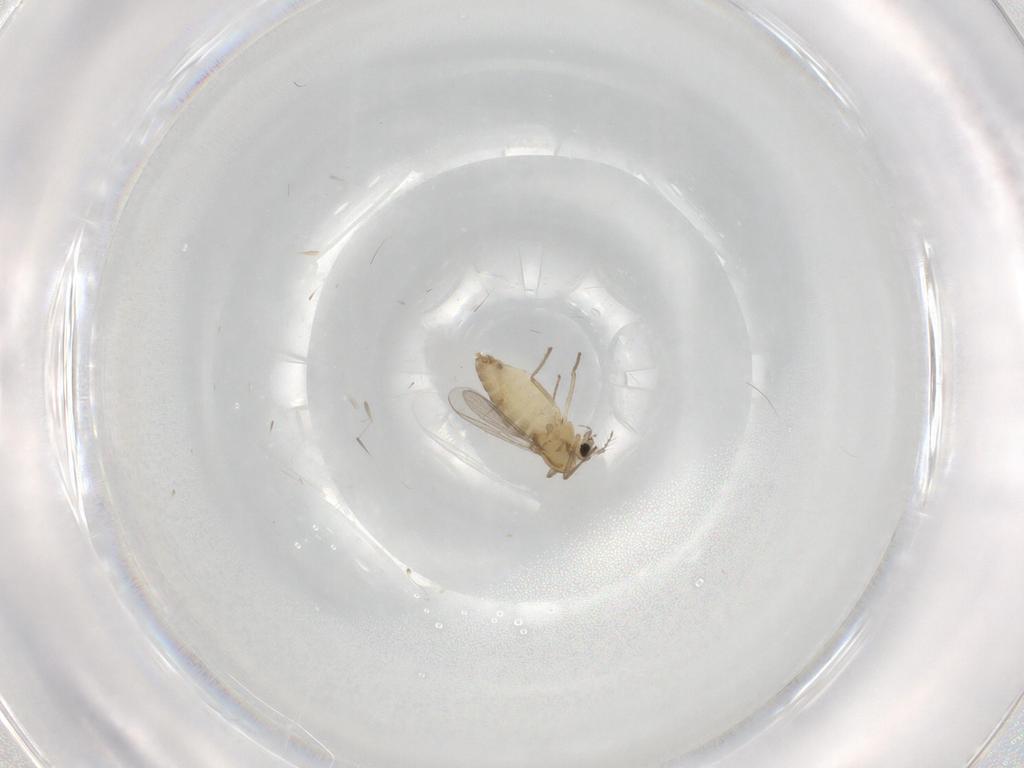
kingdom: Animalia
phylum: Arthropoda
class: Insecta
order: Diptera
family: Chironomidae
